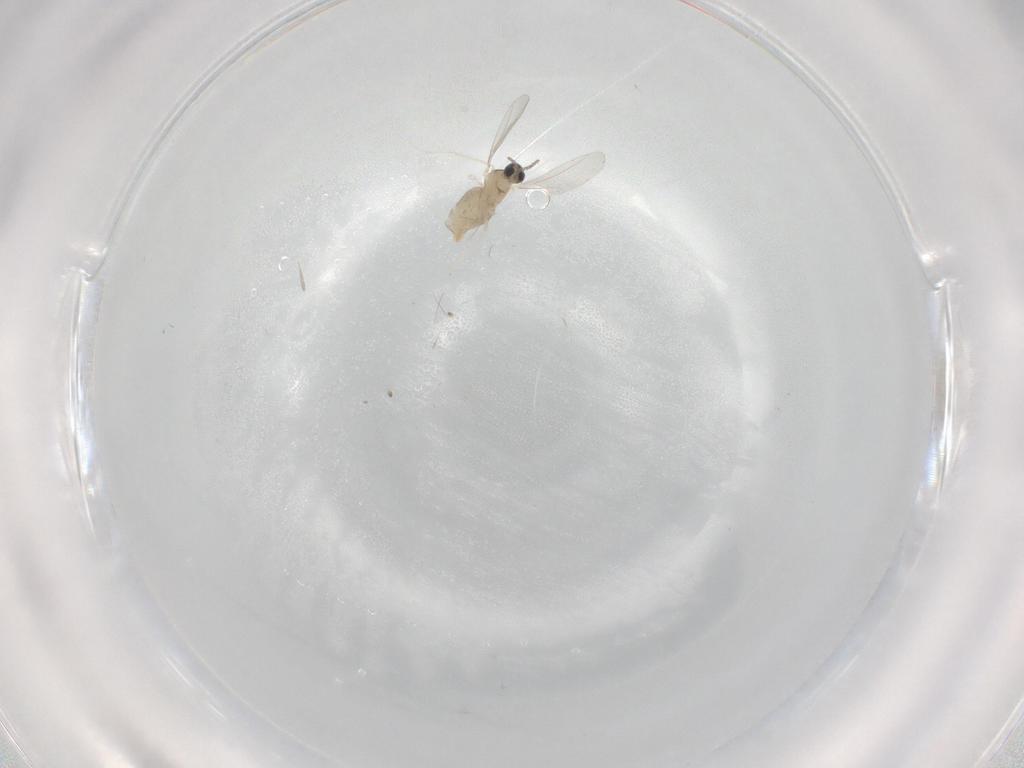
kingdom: Animalia
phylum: Arthropoda
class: Insecta
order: Diptera
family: Cecidomyiidae
